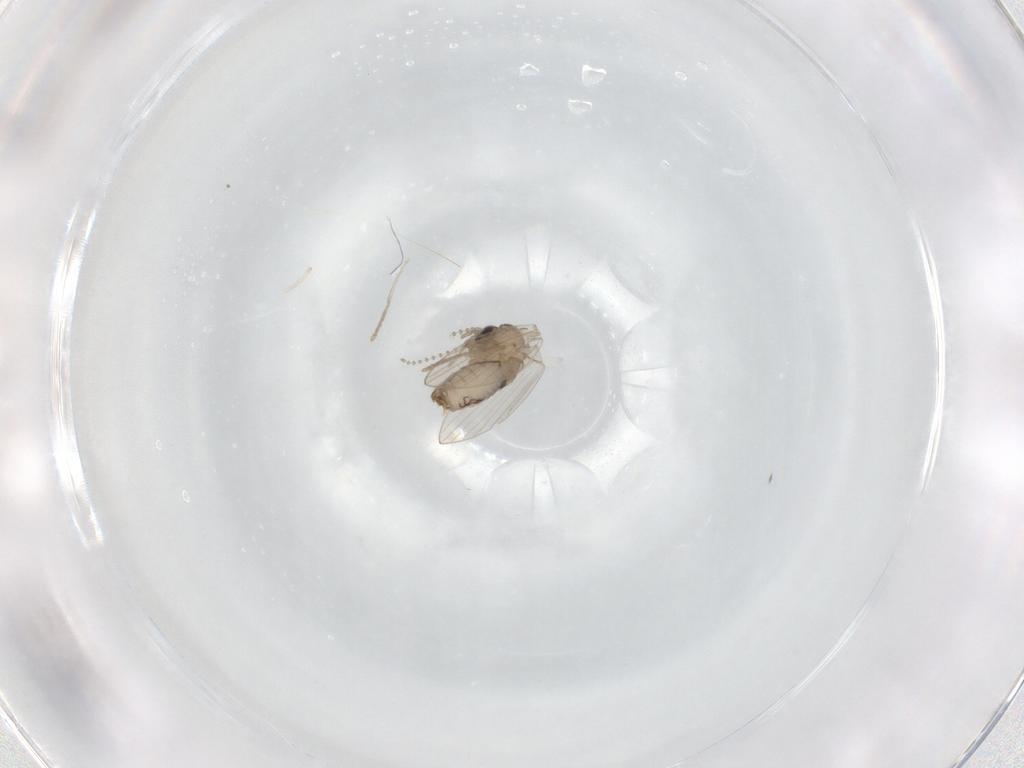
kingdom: Animalia
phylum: Arthropoda
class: Insecta
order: Diptera
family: Psychodidae
